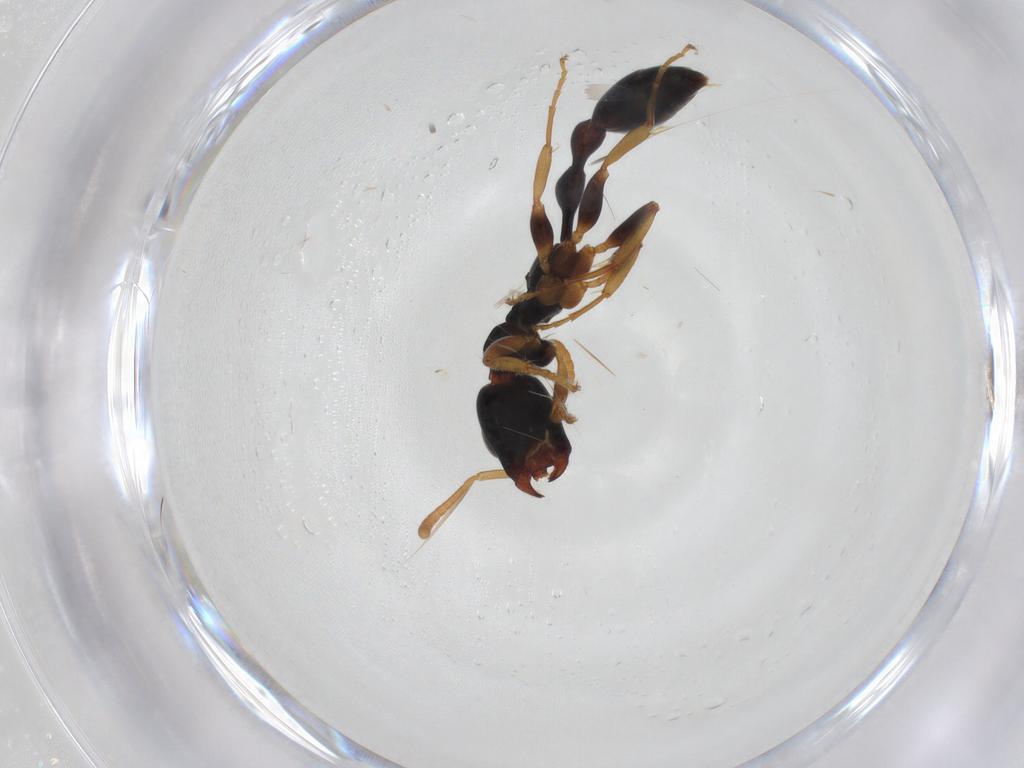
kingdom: Animalia
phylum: Arthropoda
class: Insecta
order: Hymenoptera
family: Formicidae
